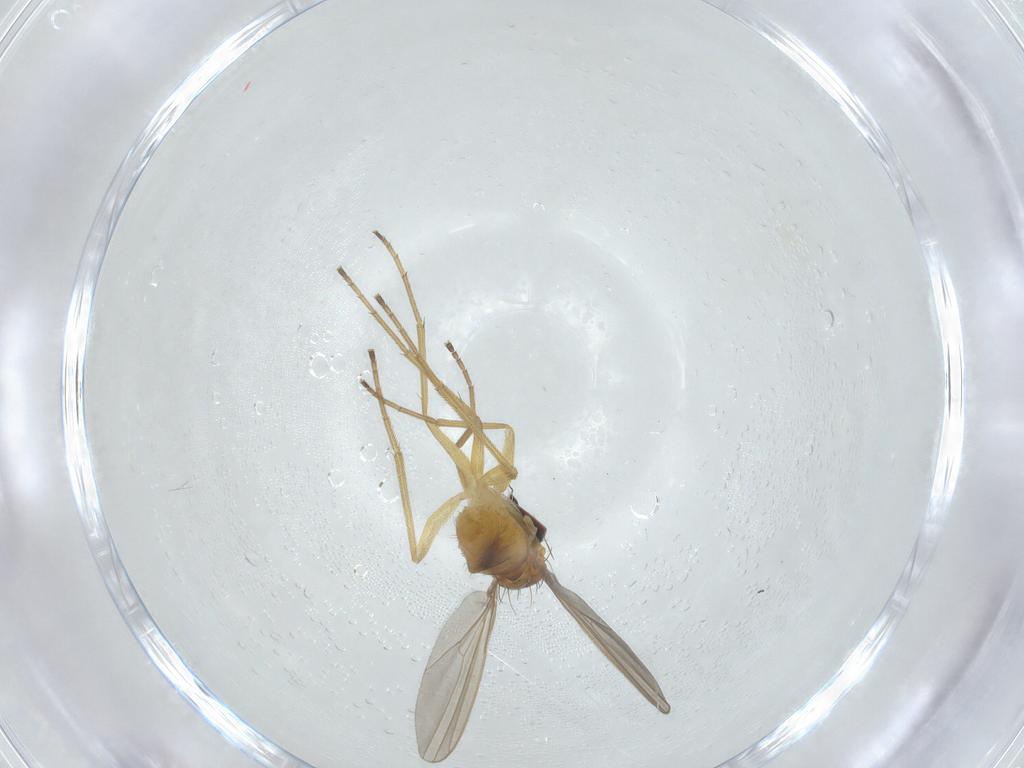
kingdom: Animalia
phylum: Arthropoda
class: Insecta
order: Diptera
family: Dolichopodidae
